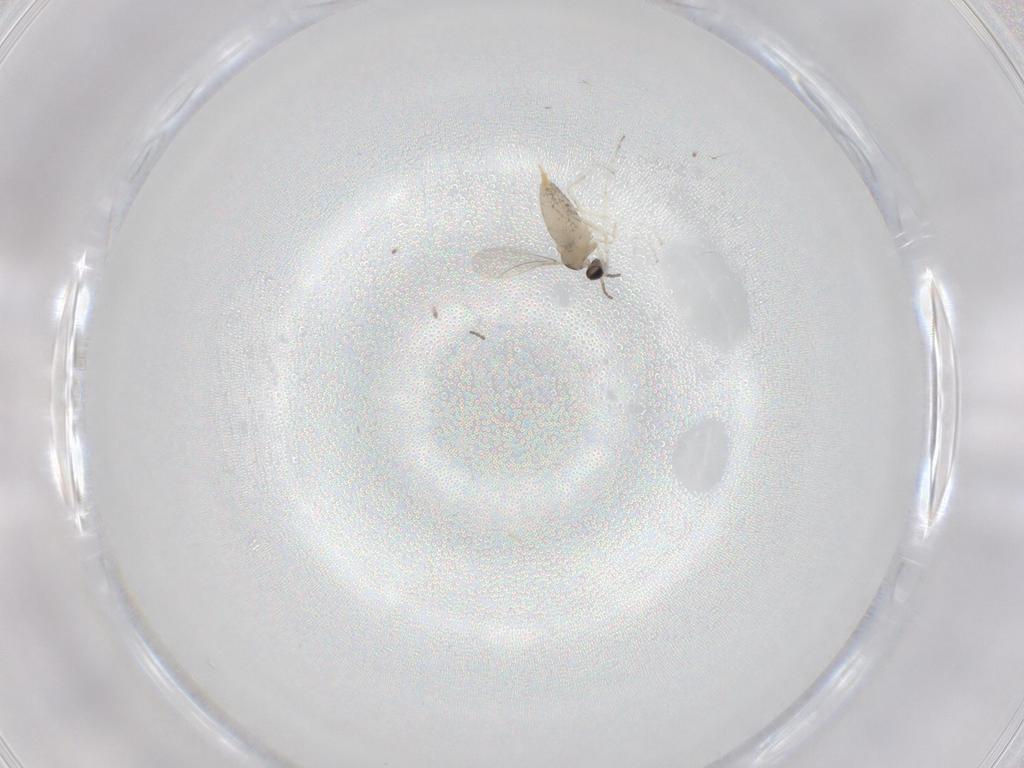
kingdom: Animalia
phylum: Arthropoda
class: Insecta
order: Diptera
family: Cecidomyiidae
